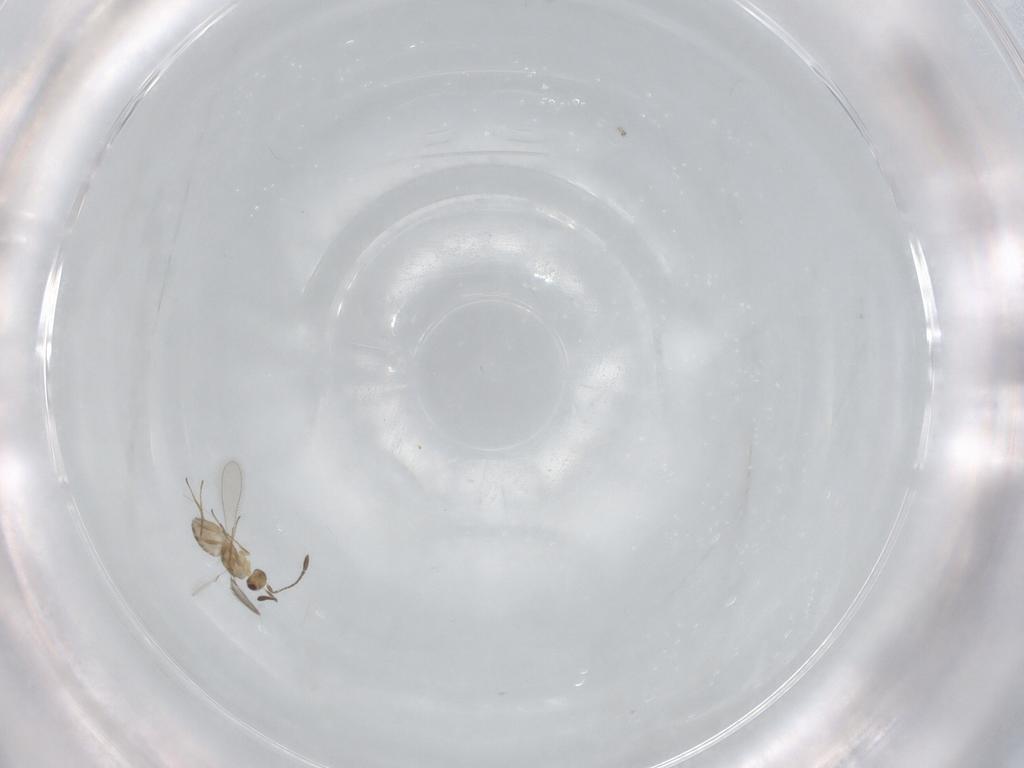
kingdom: Animalia
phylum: Arthropoda
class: Insecta
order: Hymenoptera
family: Mymaridae
